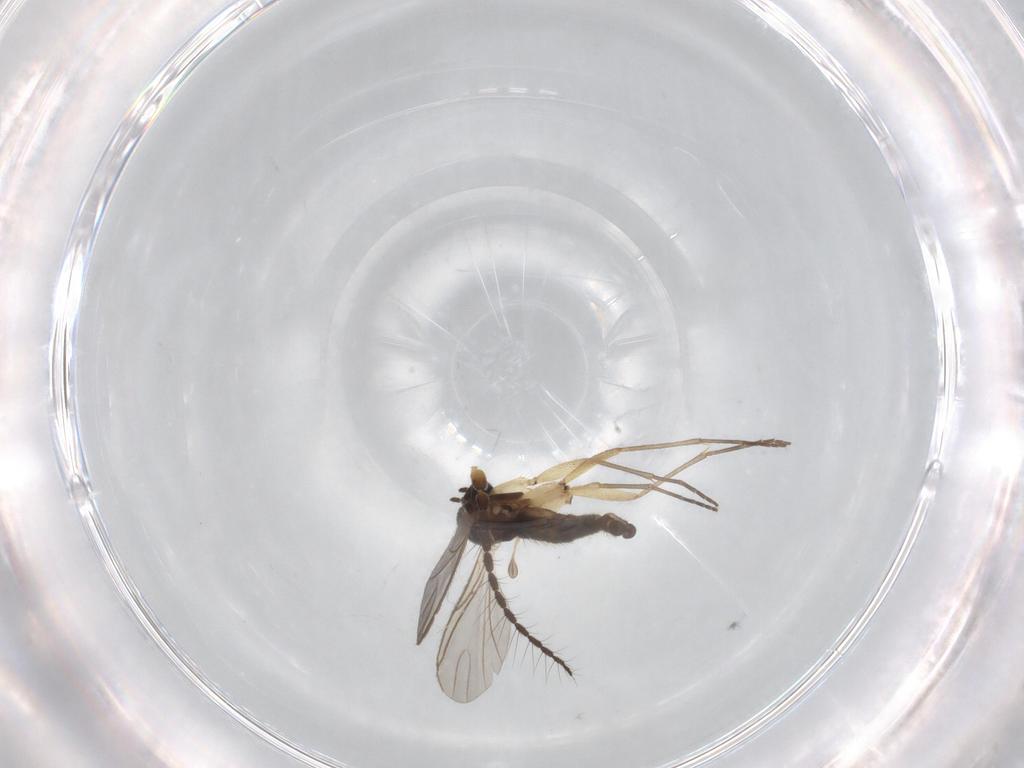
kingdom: Animalia
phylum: Arthropoda
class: Insecta
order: Diptera
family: Limoniidae
